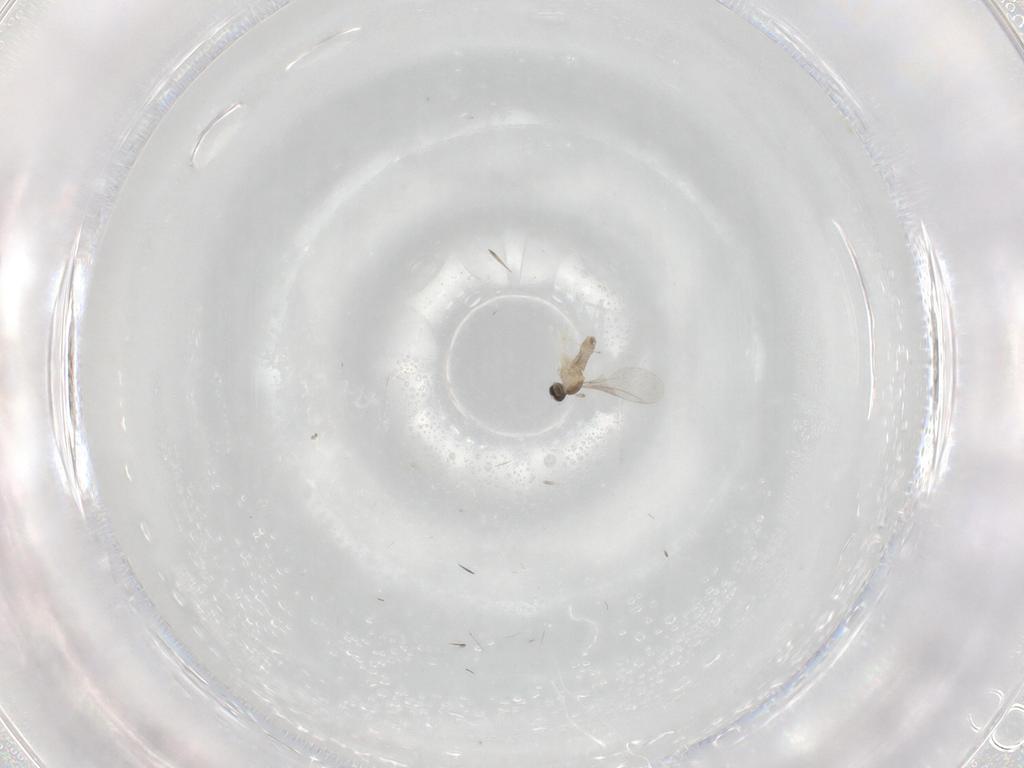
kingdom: Animalia
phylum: Arthropoda
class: Insecta
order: Diptera
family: Cecidomyiidae
